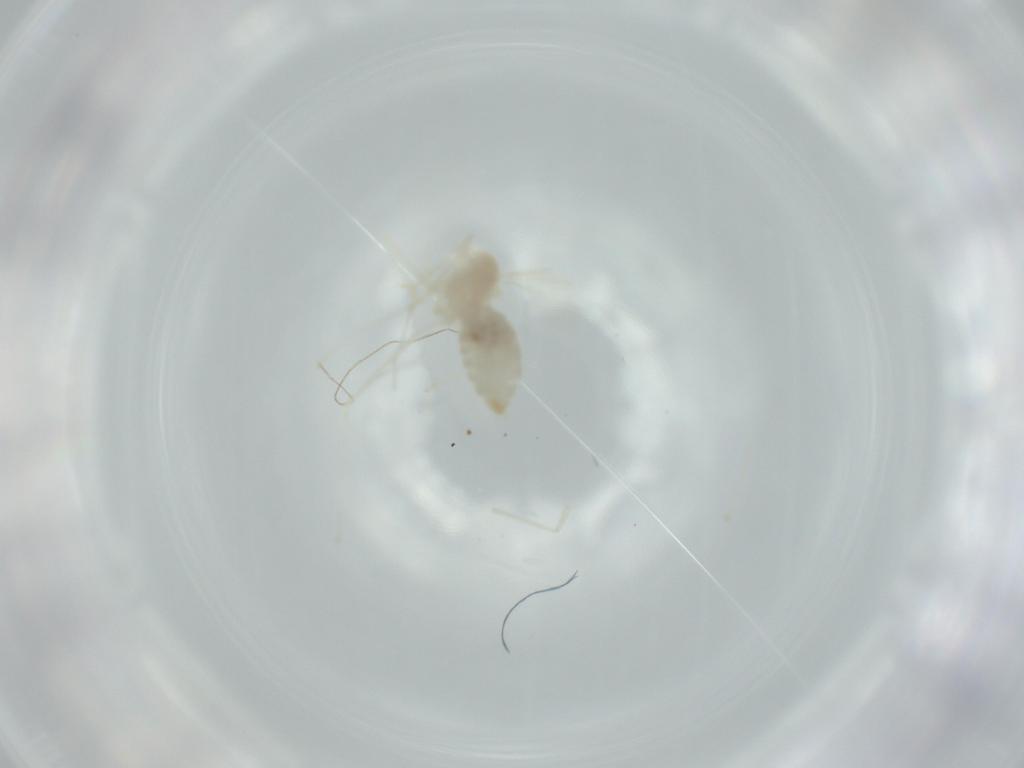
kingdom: Animalia
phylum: Arthropoda
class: Insecta
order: Diptera
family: Cecidomyiidae
